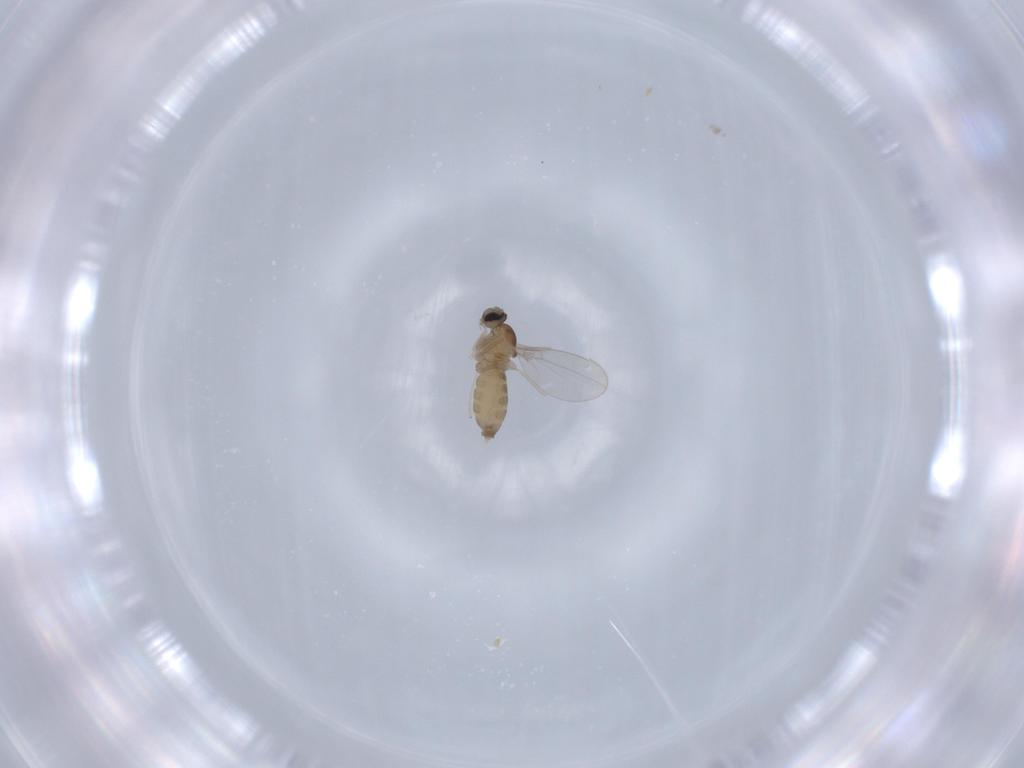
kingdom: Animalia
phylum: Arthropoda
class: Insecta
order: Diptera
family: Cecidomyiidae
